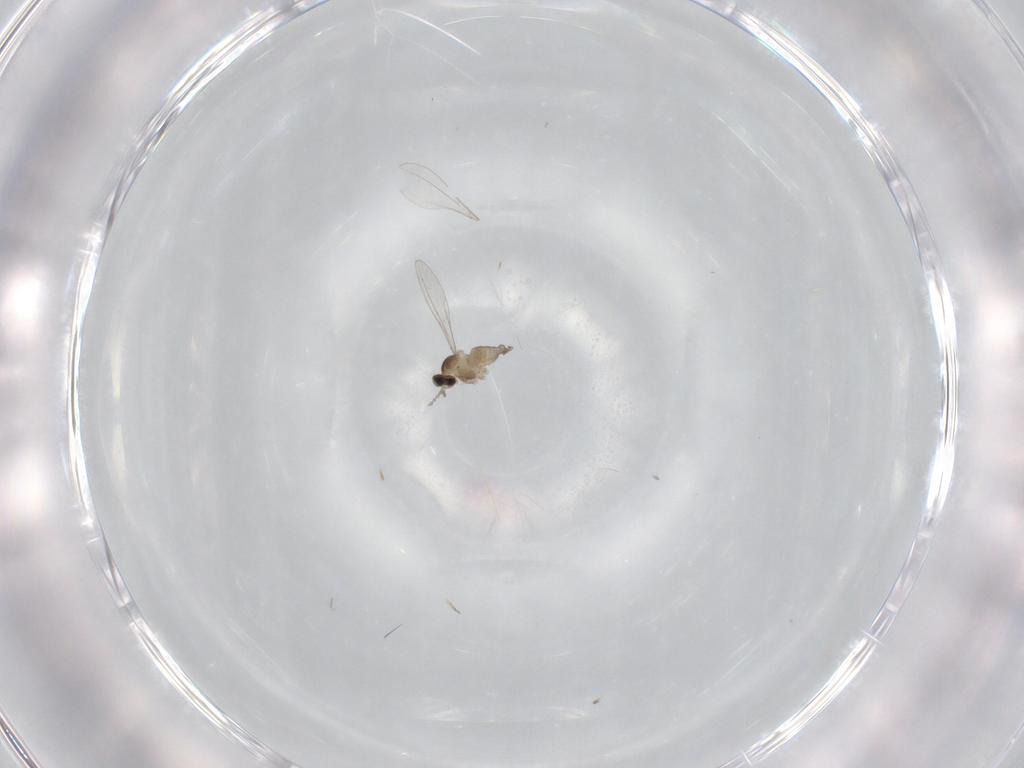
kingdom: Animalia
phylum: Arthropoda
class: Insecta
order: Diptera
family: Cecidomyiidae
